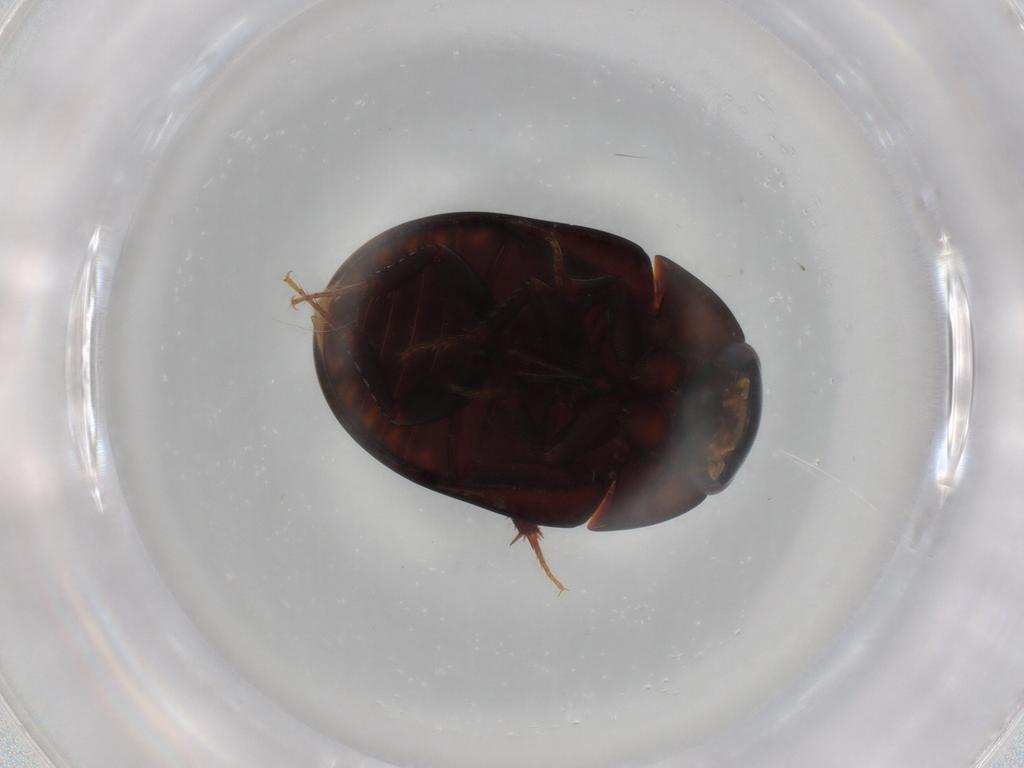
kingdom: Animalia
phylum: Arthropoda
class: Insecta
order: Coleoptera
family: Hydrophilidae
